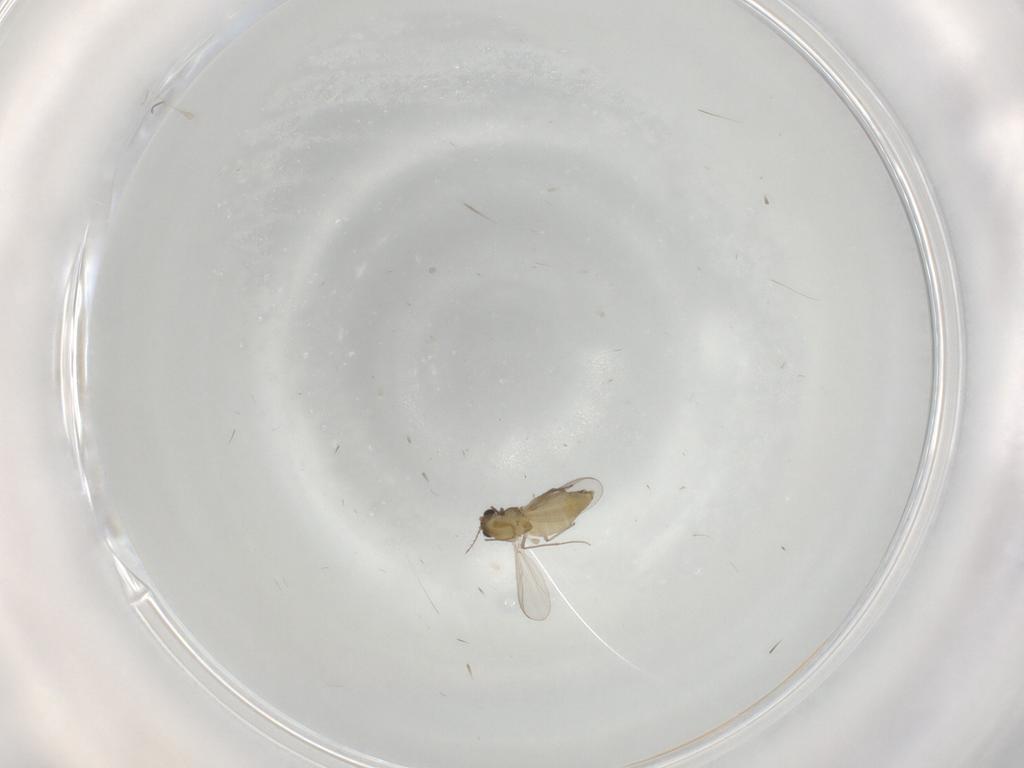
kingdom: Animalia
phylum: Arthropoda
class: Insecta
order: Diptera
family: Chironomidae
